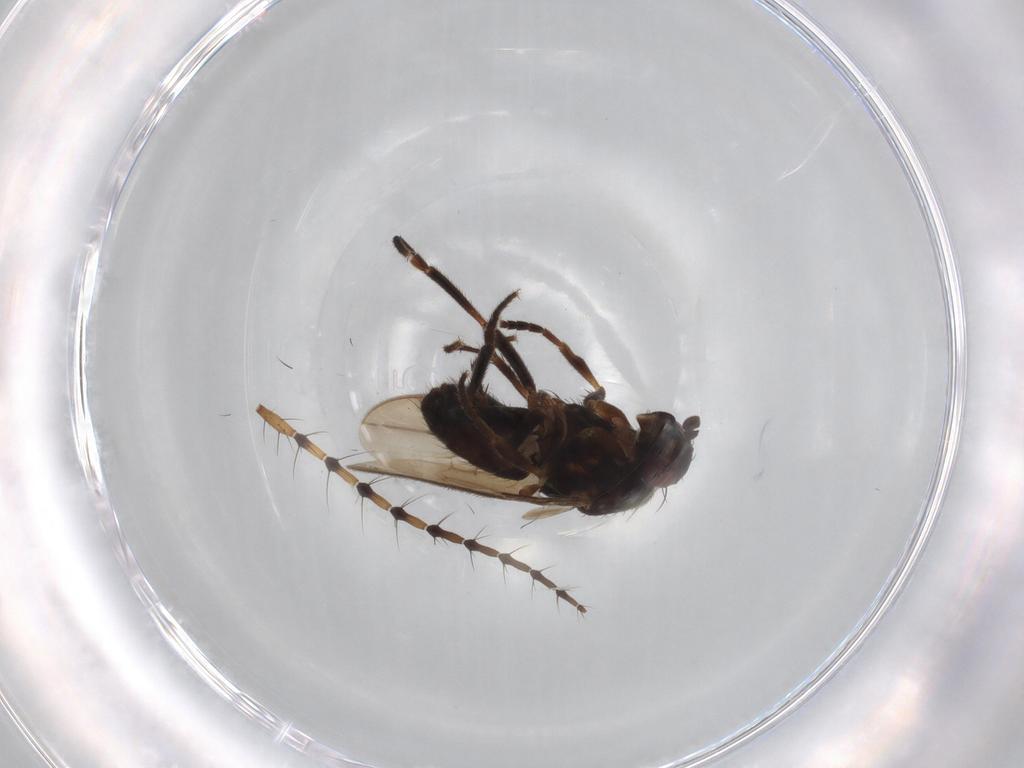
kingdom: Animalia
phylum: Arthropoda
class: Insecta
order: Diptera
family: Sphaeroceridae
